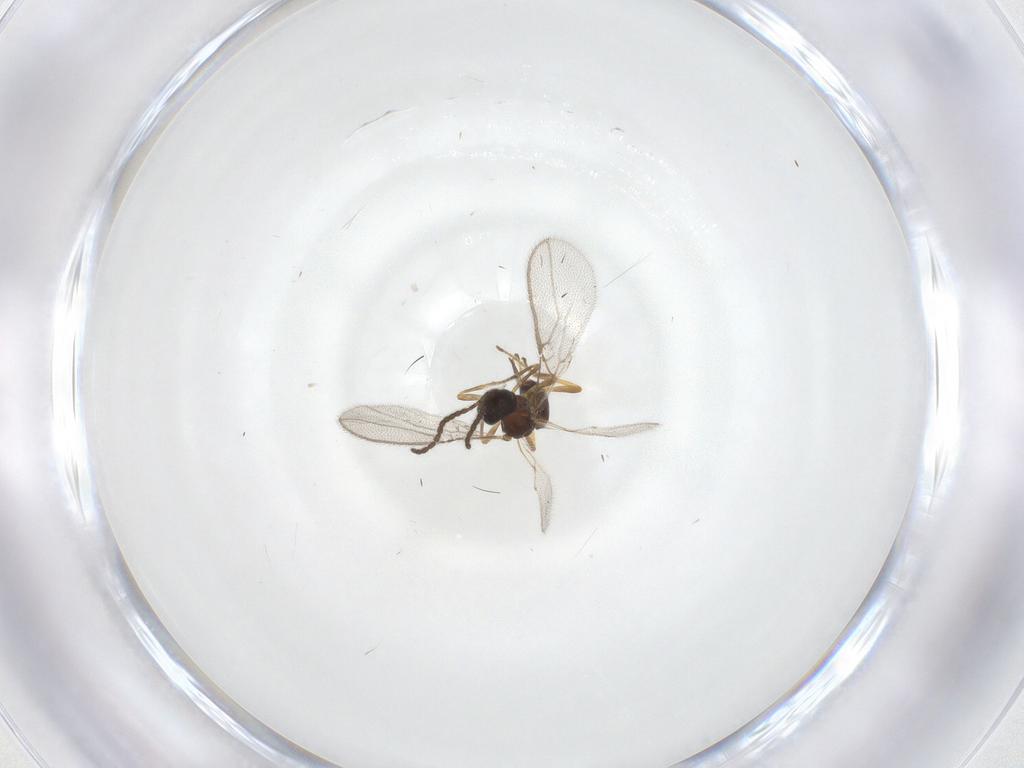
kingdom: Animalia
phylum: Arthropoda
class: Insecta
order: Hymenoptera
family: Braconidae
